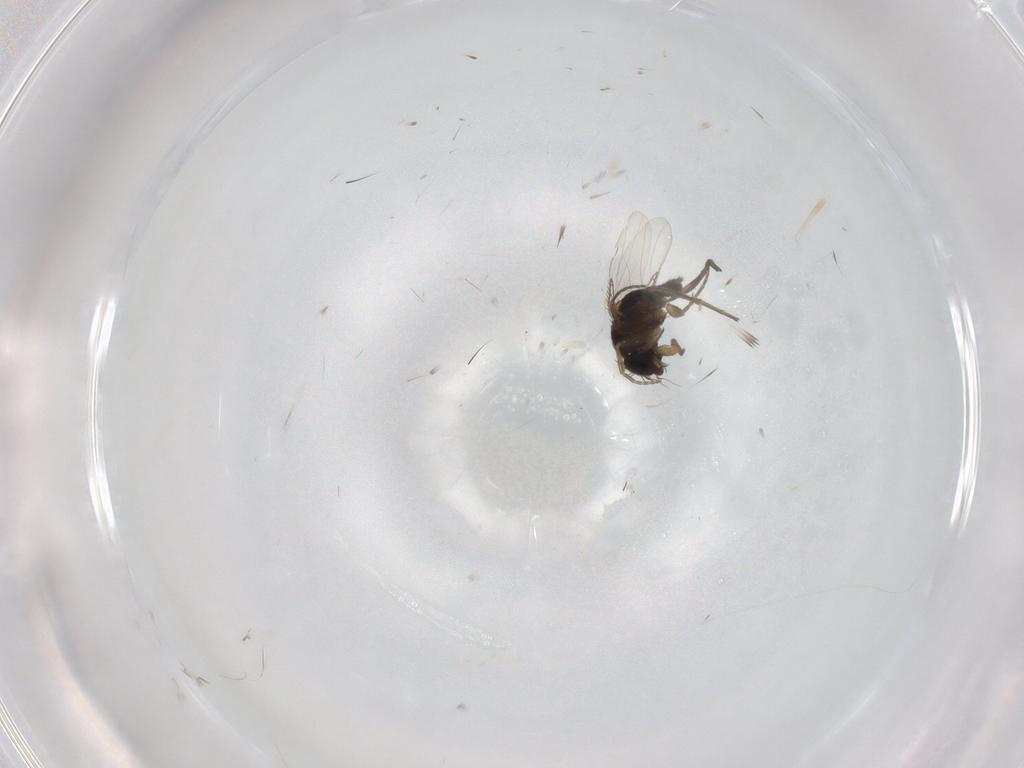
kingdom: Animalia
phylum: Arthropoda
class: Insecta
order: Diptera
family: Phoridae
